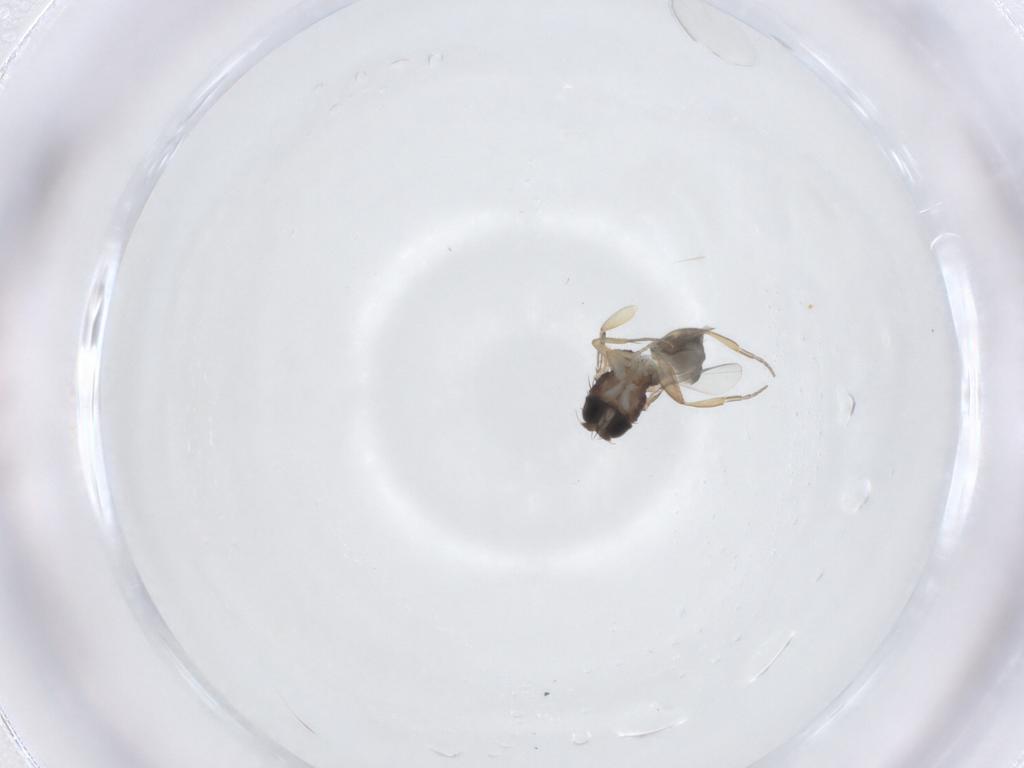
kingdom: Animalia
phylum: Arthropoda
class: Insecta
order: Diptera
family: Phoridae
